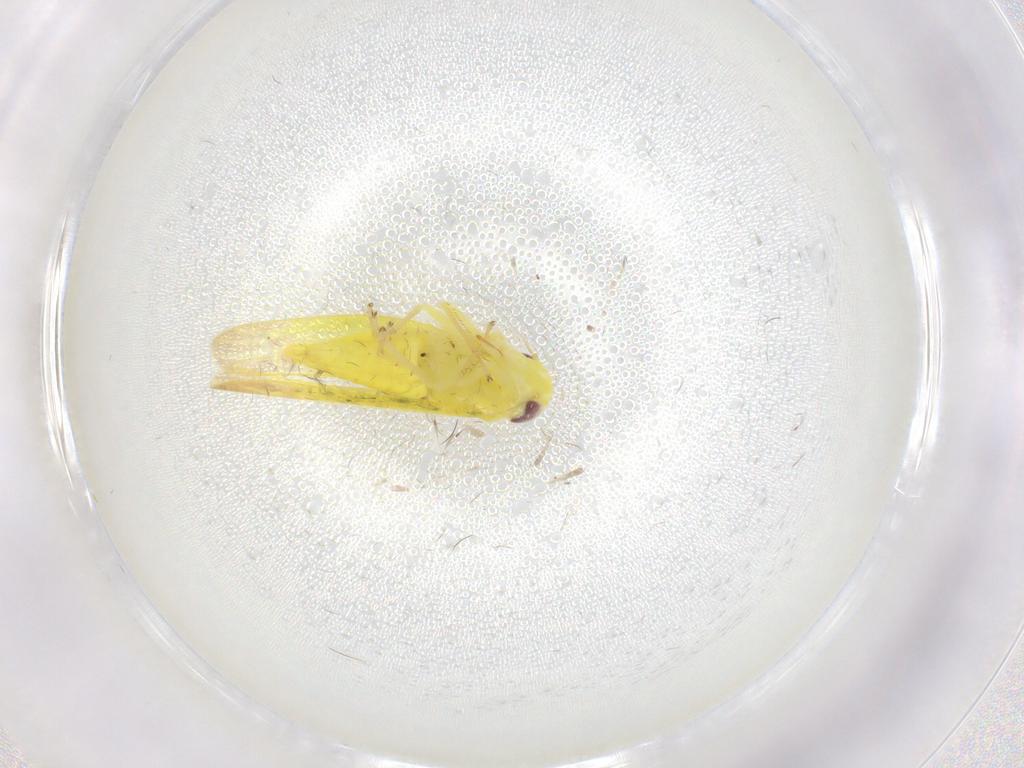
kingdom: Animalia
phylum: Arthropoda
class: Insecta
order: Hemiptera
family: Cicadellidae
